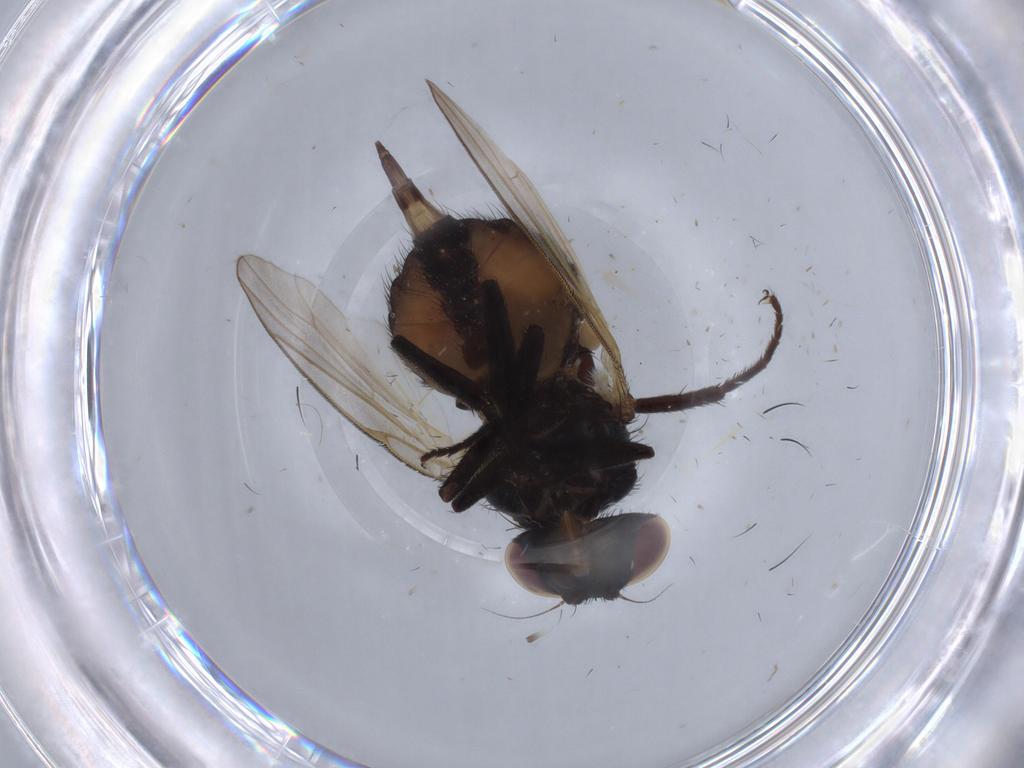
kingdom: Animalia
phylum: Arthropoda
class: Insecta
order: Diptera
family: Lonchaeidae
